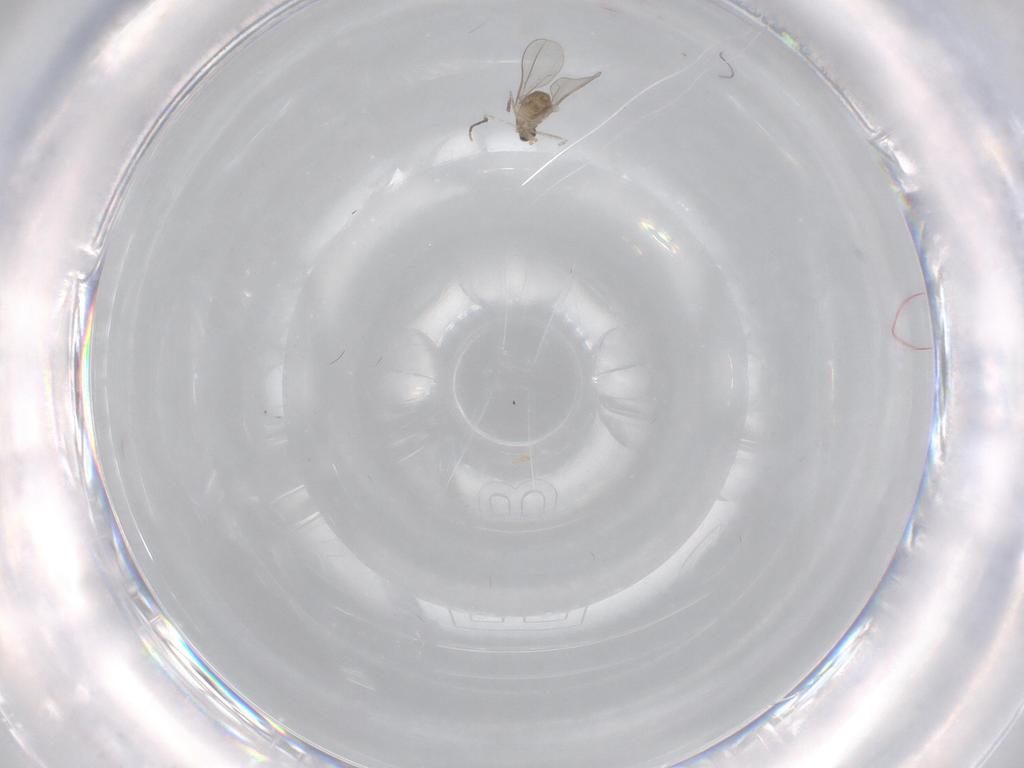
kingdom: Animalia
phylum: Arthropoda
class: Insecta
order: Diptera
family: Cecidomyiidae
